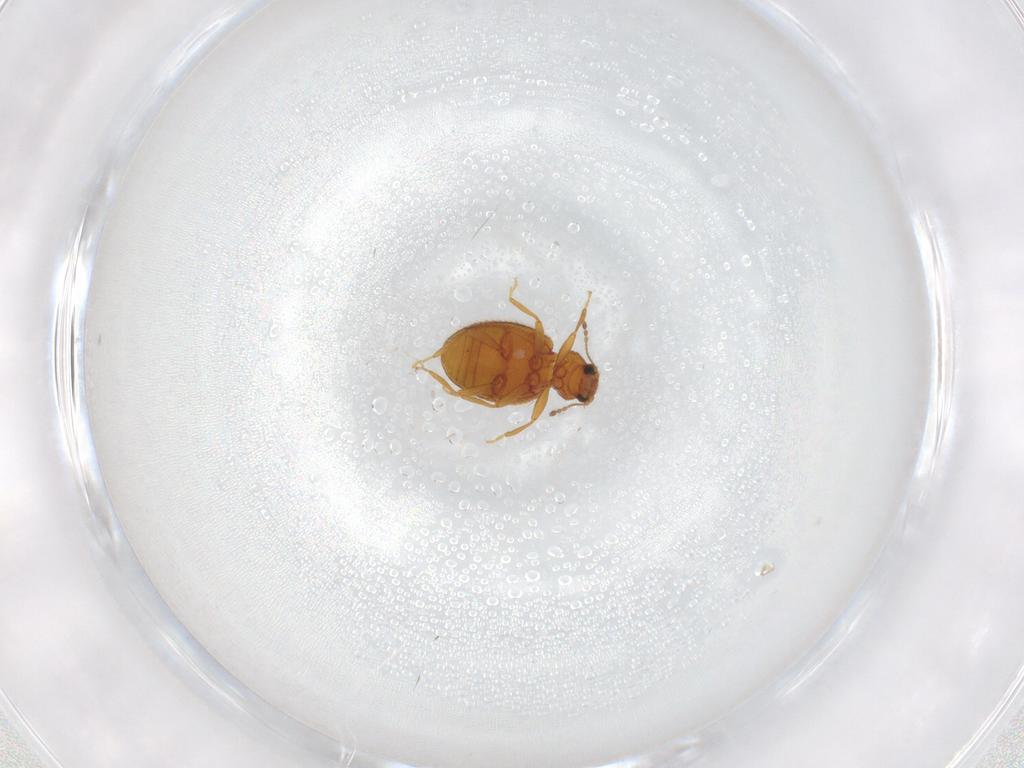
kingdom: Animalia
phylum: Arthropoda
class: Insecta
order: Coleoptera
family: Latridiidae
